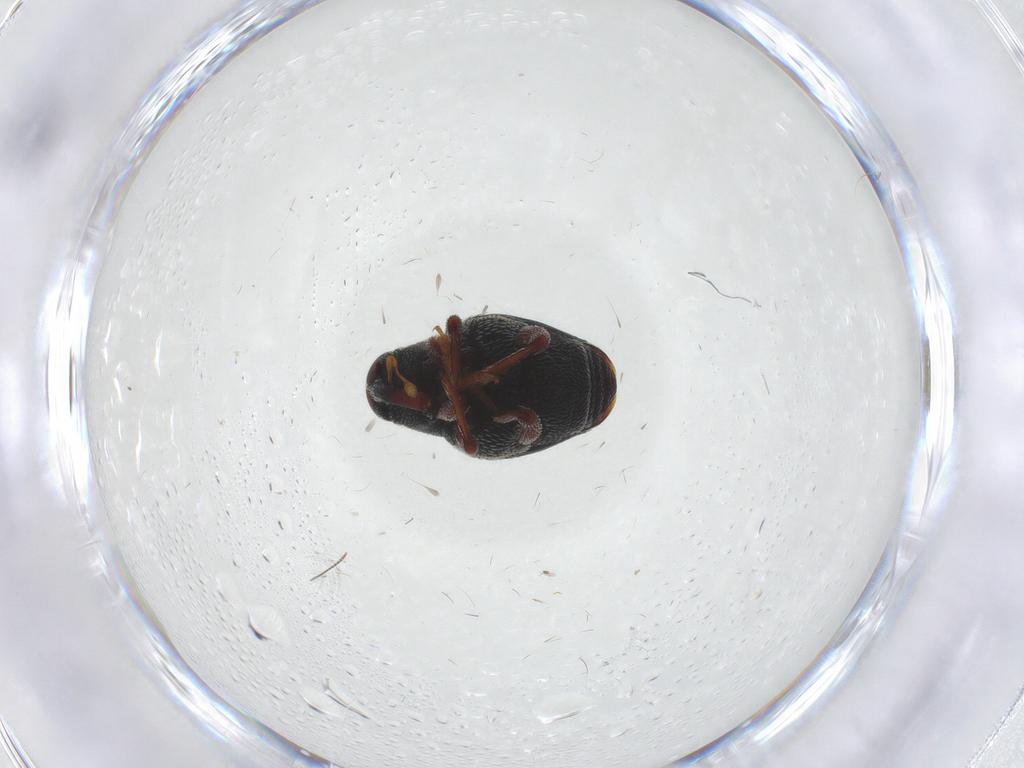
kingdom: Animalia
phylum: Arthropoda
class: Insecta
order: Coleoptera
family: Curculionidae
